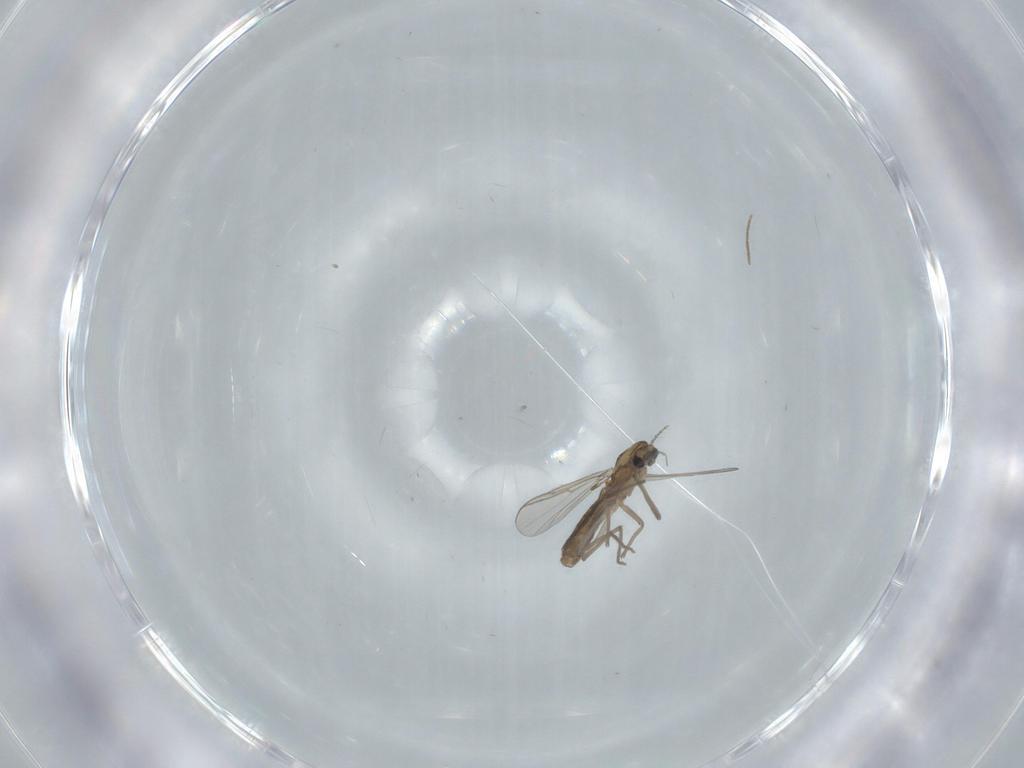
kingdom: Animalia
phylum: Arthropoda
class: Insecta
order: Diptera
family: Chironomidae
